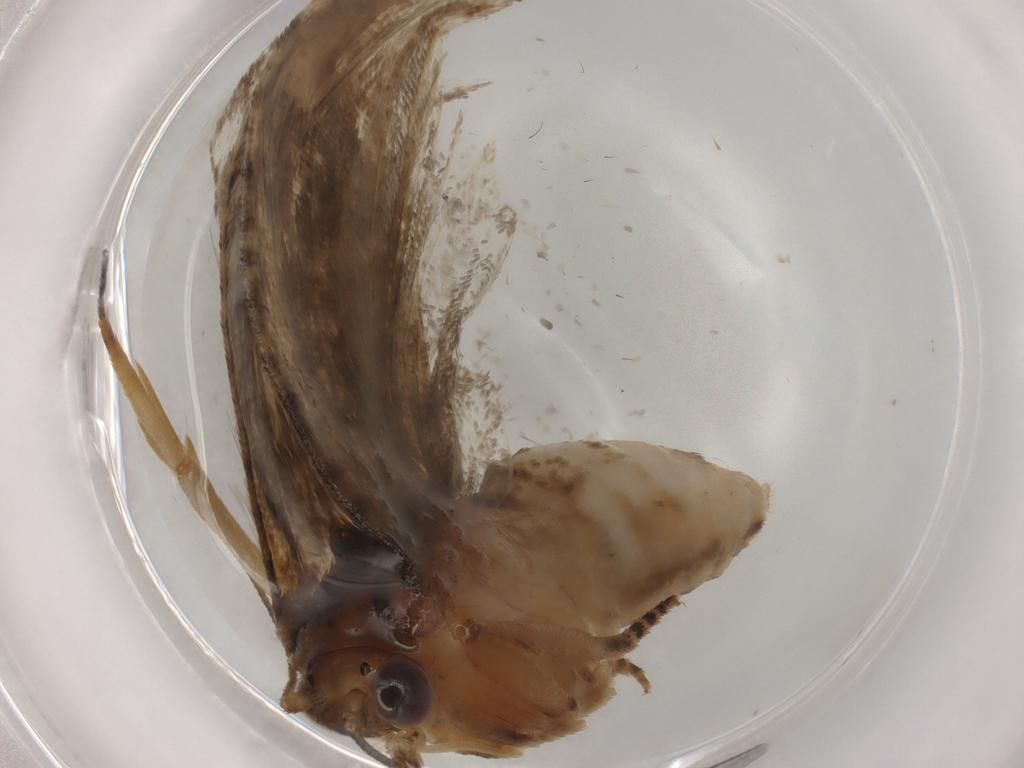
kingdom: Animalia
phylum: Arthropoda
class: Insecta
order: Lepidoptera
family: Tortricidae
